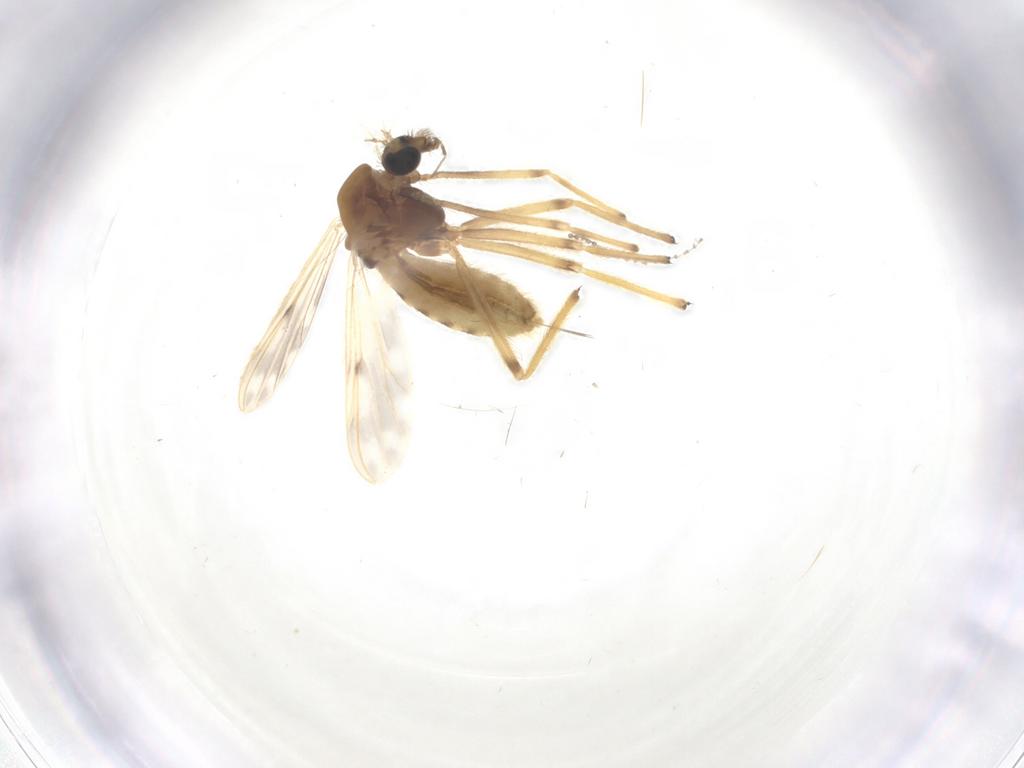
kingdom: Animalia
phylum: Arthropoda
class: Insecta
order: Diptera
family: Chironomidae
